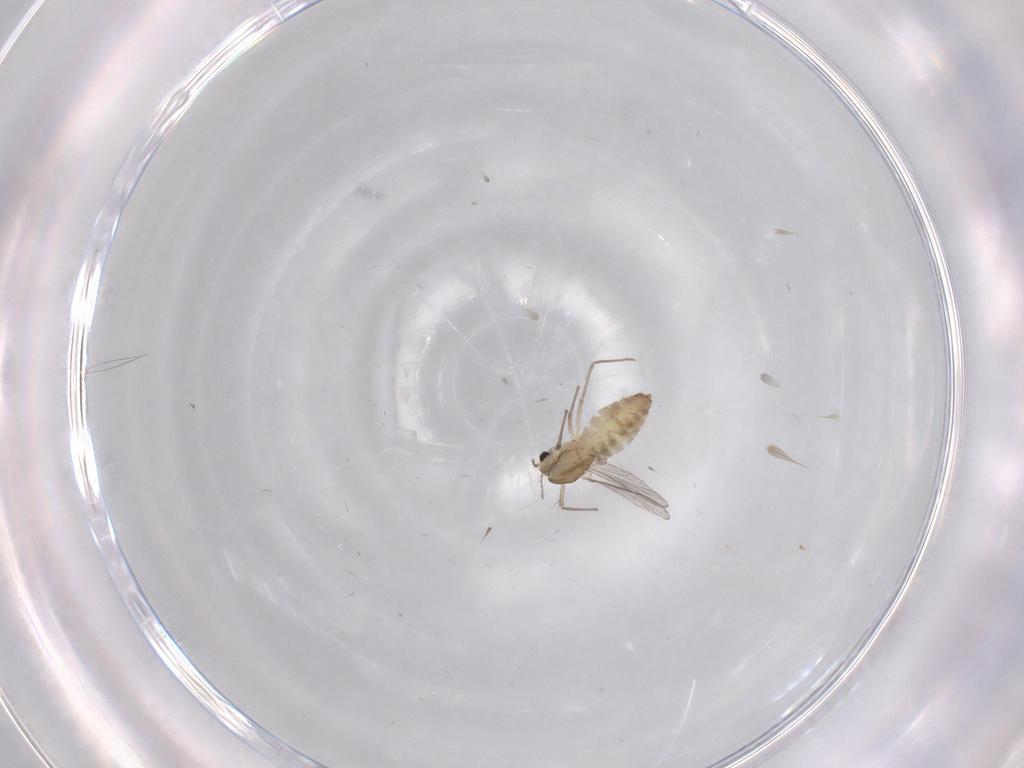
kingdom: Animalia
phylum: Arthropoda
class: Insecta
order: Diptera
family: Chironomidae
